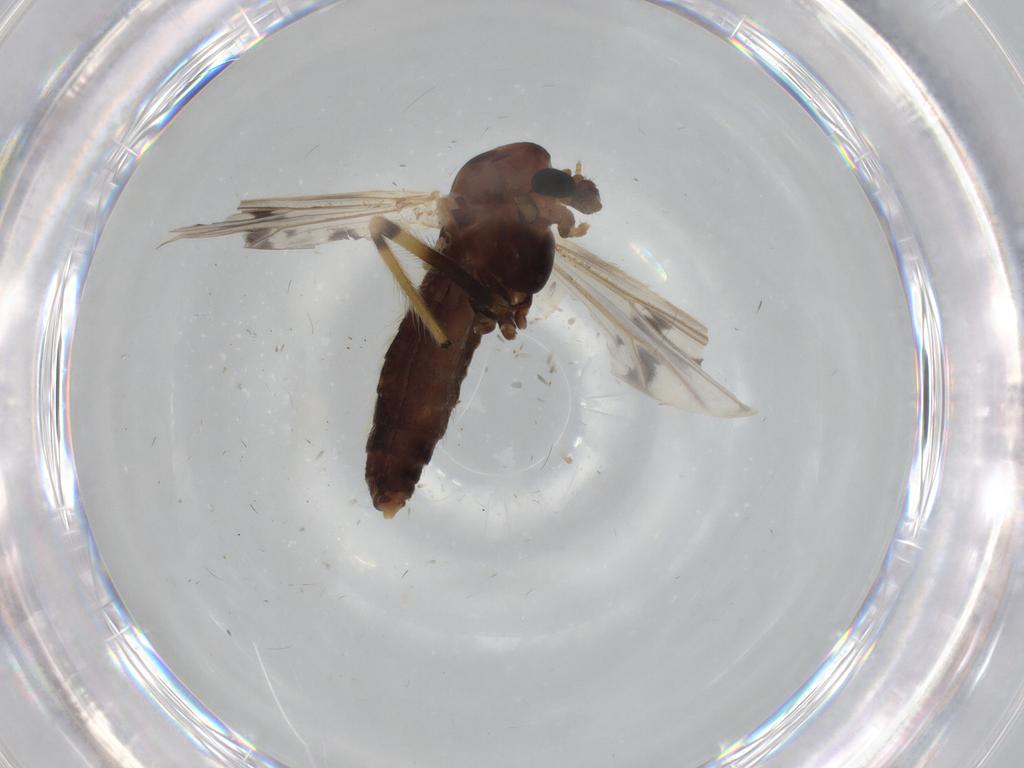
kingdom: Animalia
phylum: Arthropoda
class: Insecta
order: Diptera
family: Chironomidae
